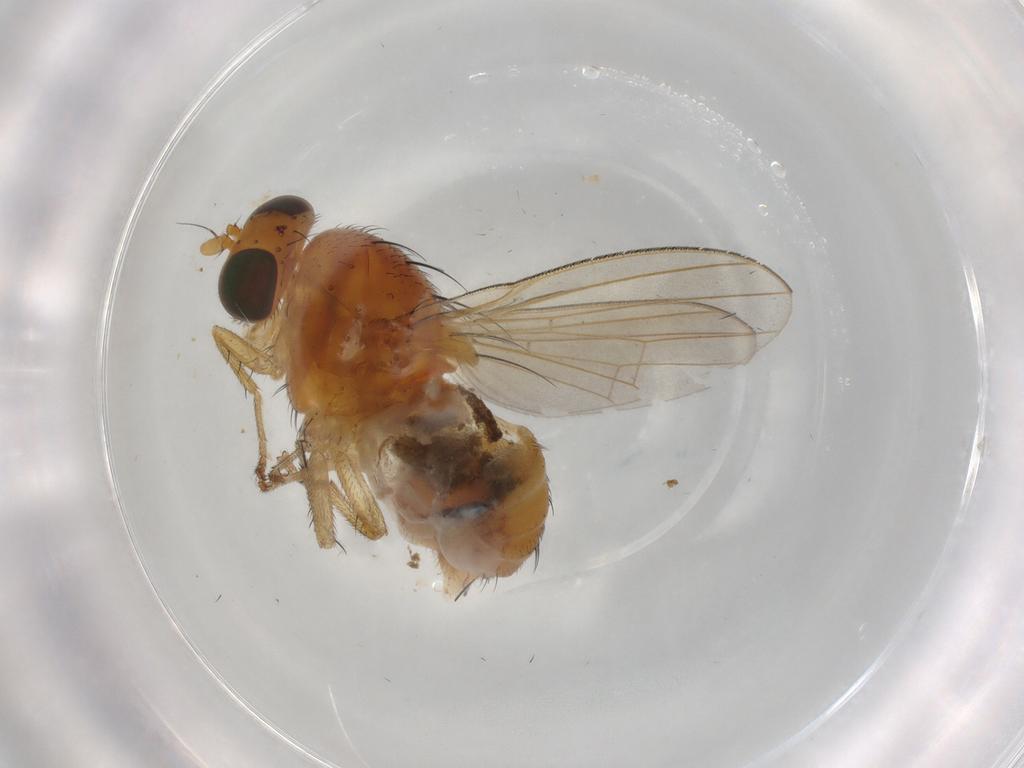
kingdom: Animalia
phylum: Arthropoda
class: Insecta
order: Diptera
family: Lauxaniidae
